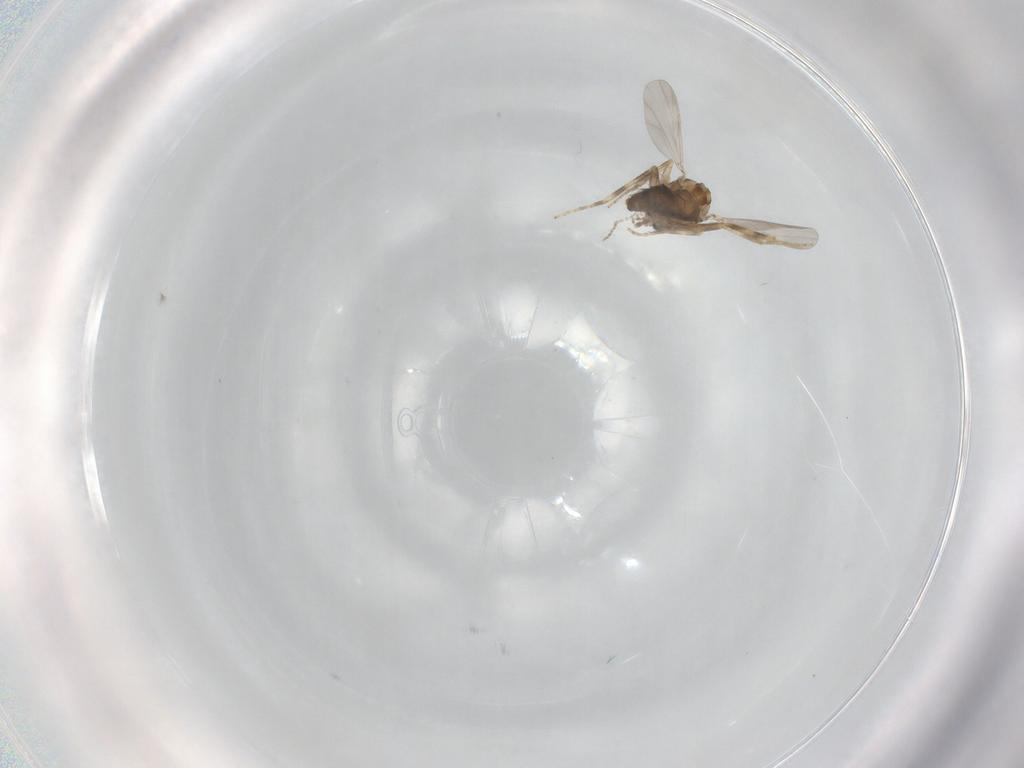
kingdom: Animalia
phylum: Arthropoda
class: Insecta
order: Diptera
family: Ceratopogonidae
